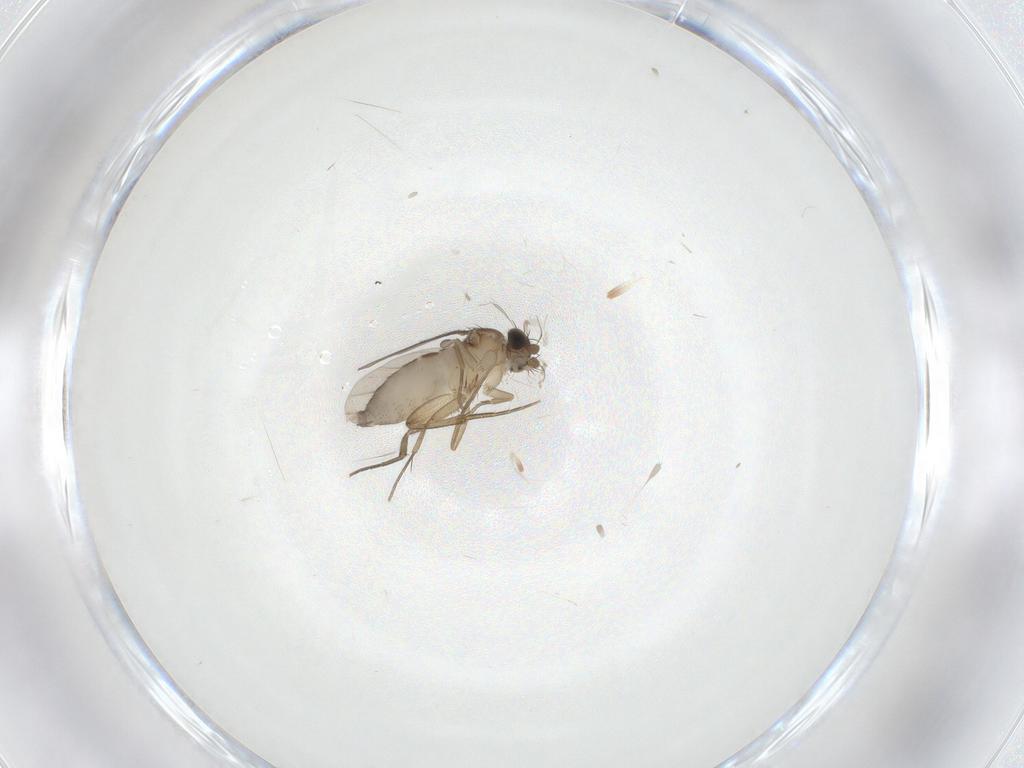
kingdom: Animalia
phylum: Arthropoda
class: Insecta
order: Diptera
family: Phoridae
